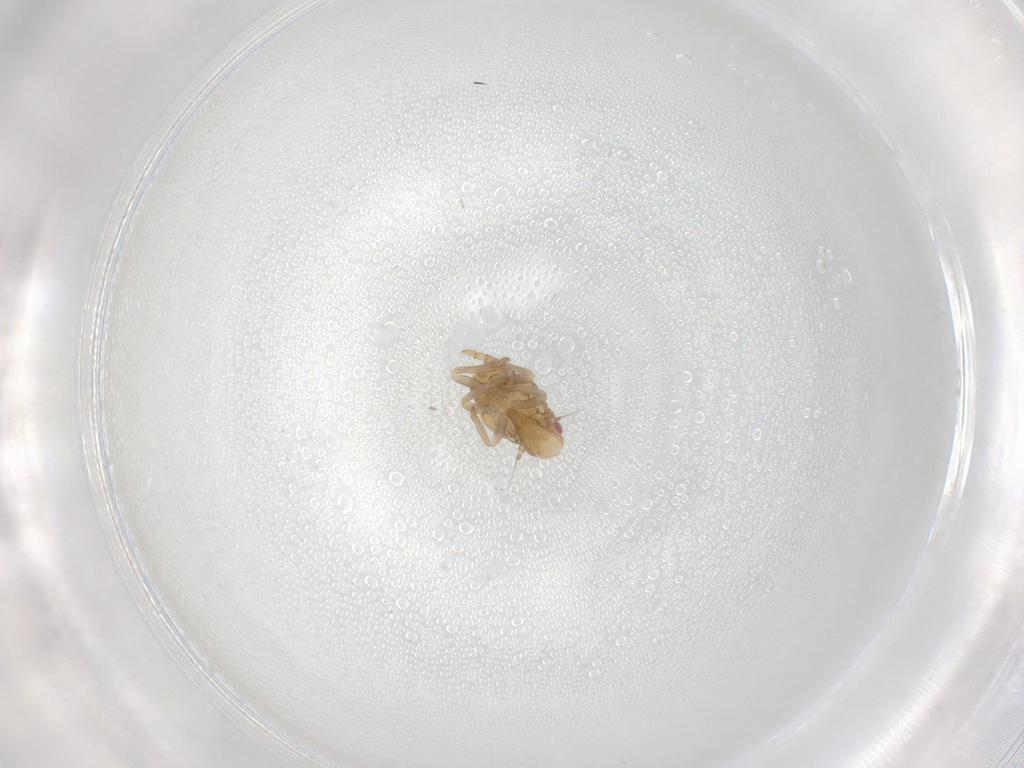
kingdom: Animalia
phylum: Arthropoda
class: Insecta
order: Hemiptera
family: Flatidae
